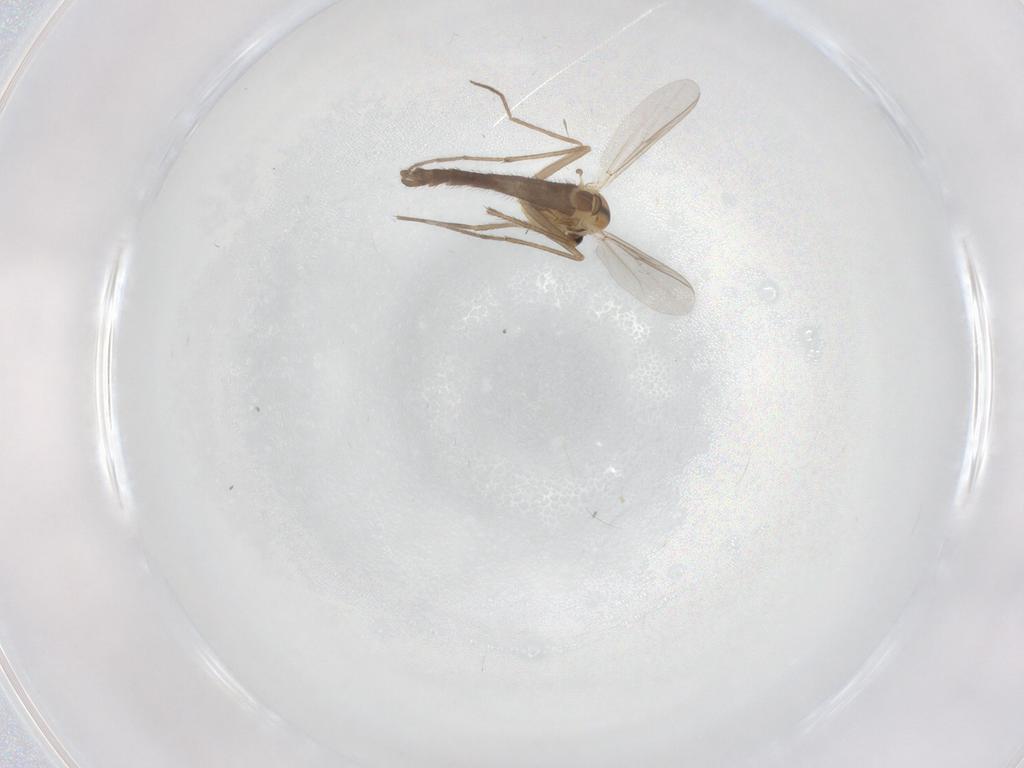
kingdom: Animalia
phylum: Arthropoda
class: Insecta
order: Diptera
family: Chironomidae
